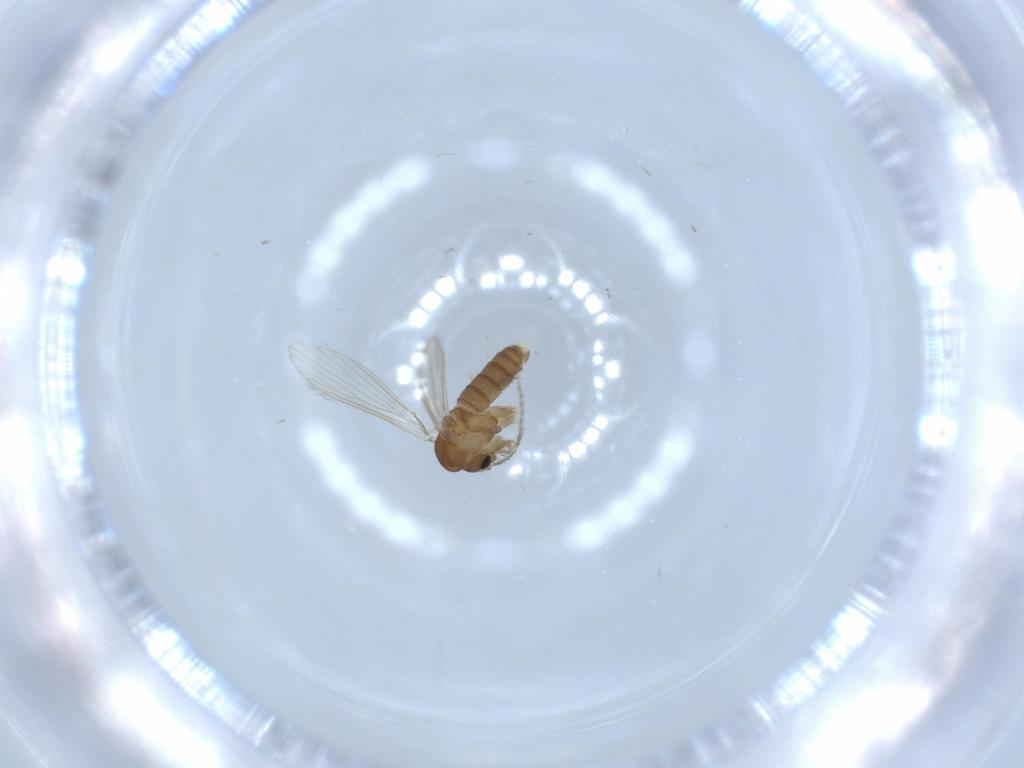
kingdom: Animalia
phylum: Arthropoda
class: Insecta
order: Diptera
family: Psychodidae
